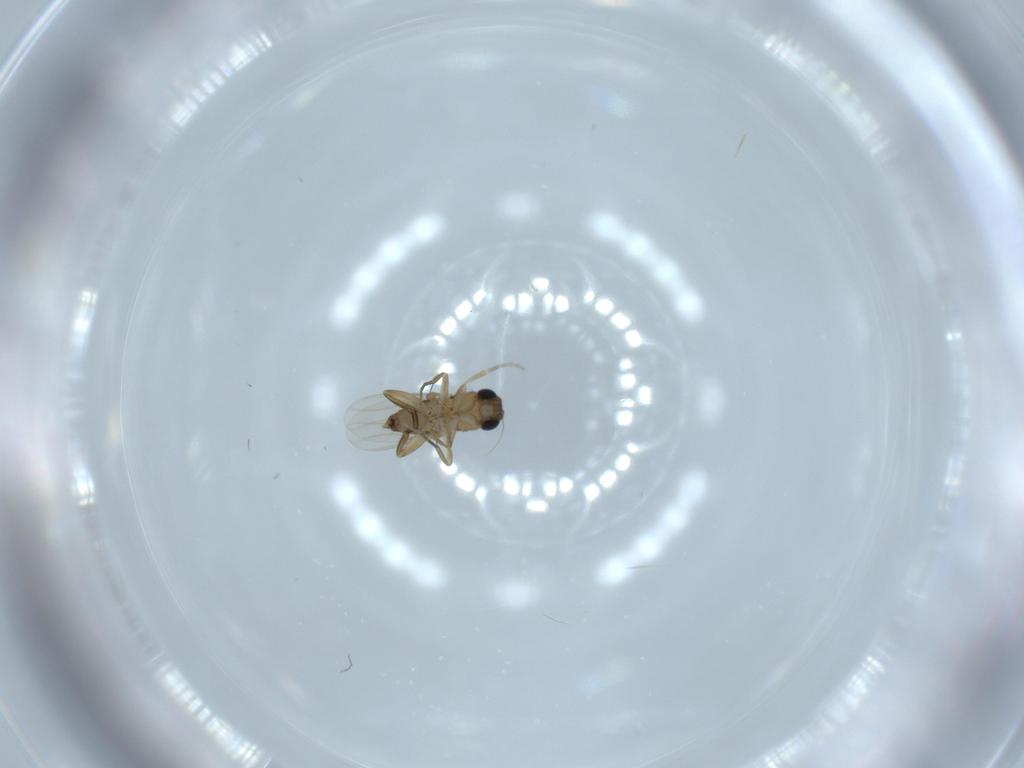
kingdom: Animalia
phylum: Arthropoda
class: Insecta
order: Diptera
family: Phoridae
